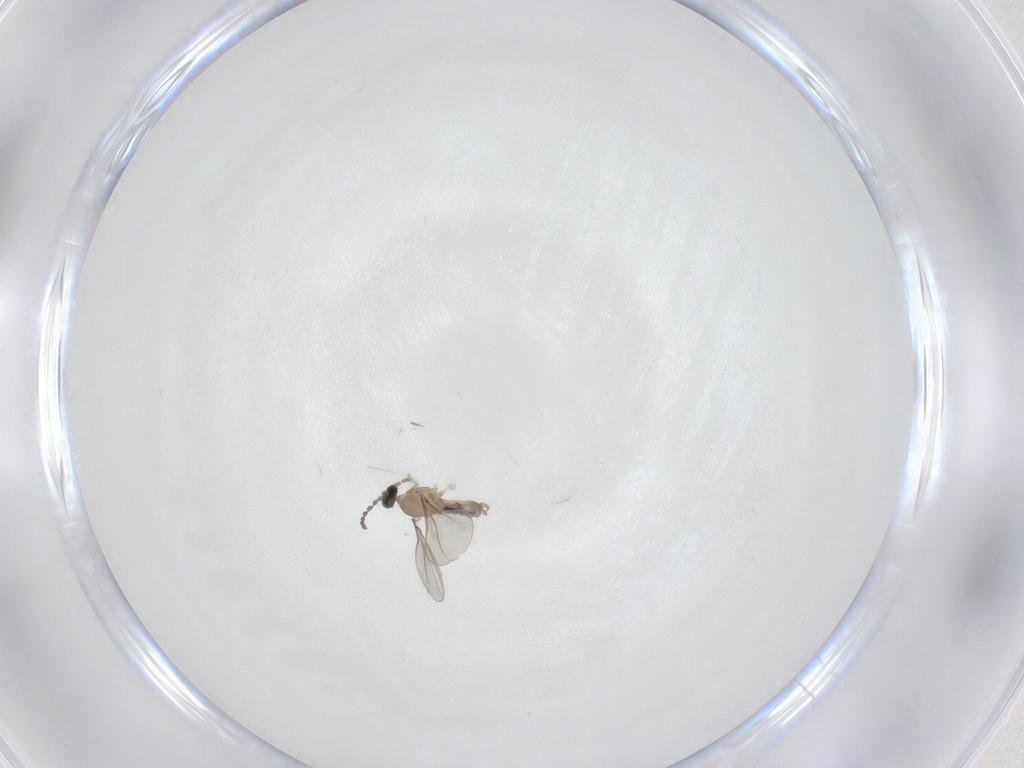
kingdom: Animalia
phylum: Arthropoda
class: Insecta
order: Diptera
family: Cecidomyiidae
